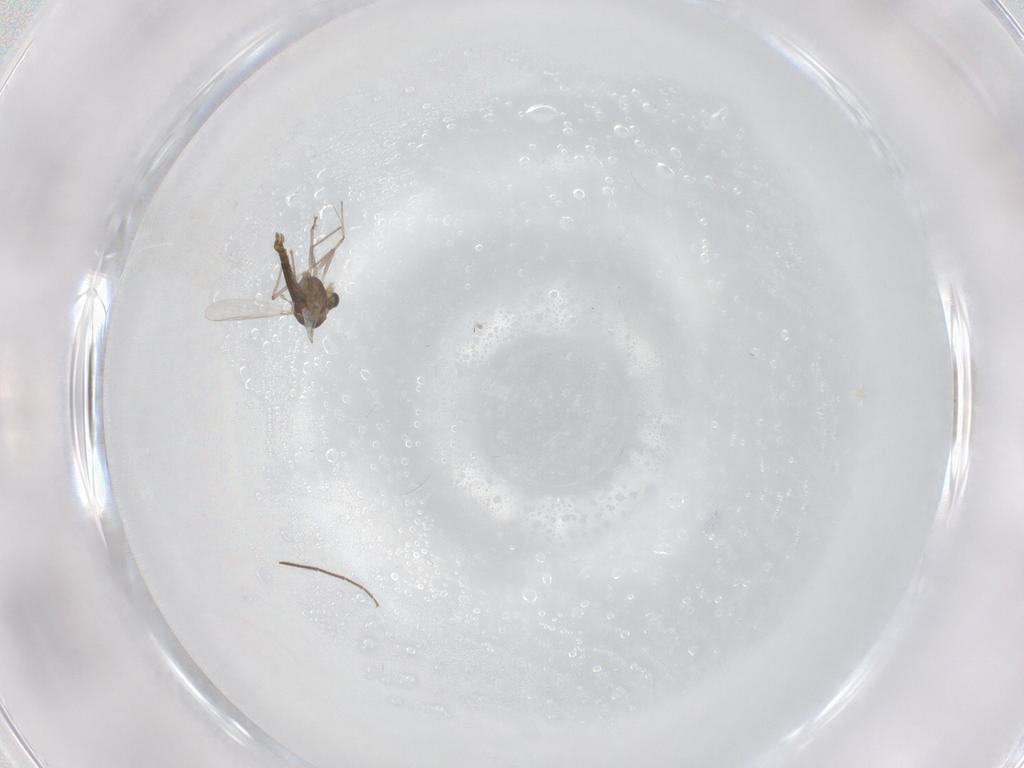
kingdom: Animalia
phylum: Arthropoda
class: Insecta
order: Diptera
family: Chironomidae
